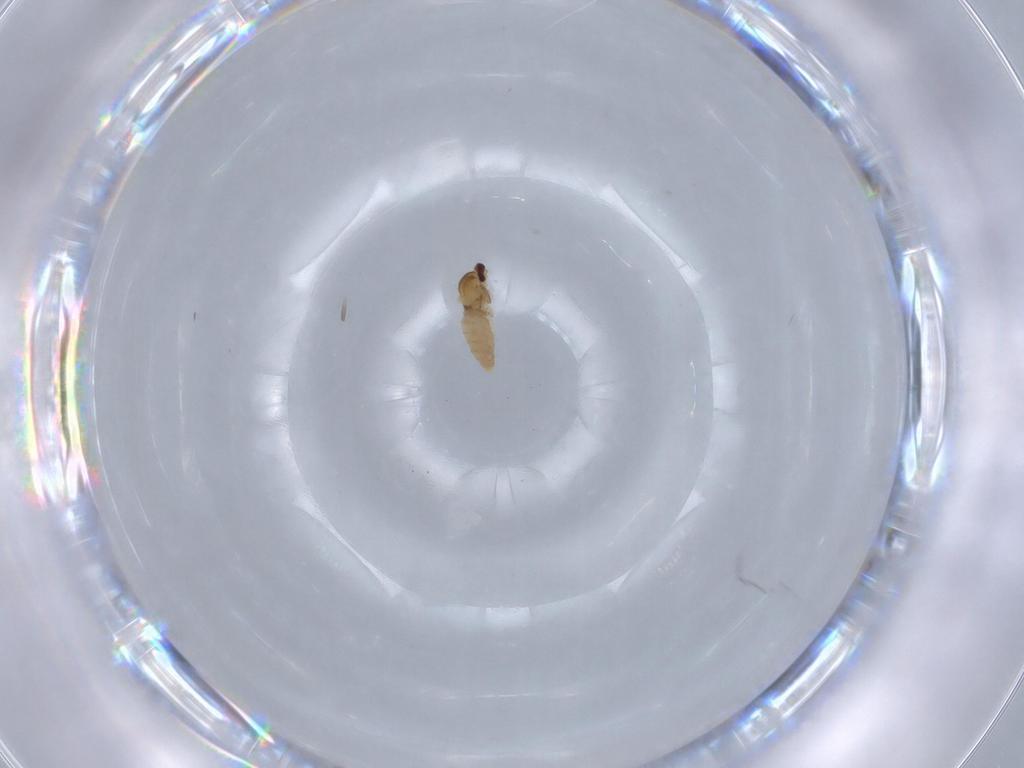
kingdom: Animalia
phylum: Arthropoda
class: Insecta
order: Diptera
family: Cecidomyiidae
